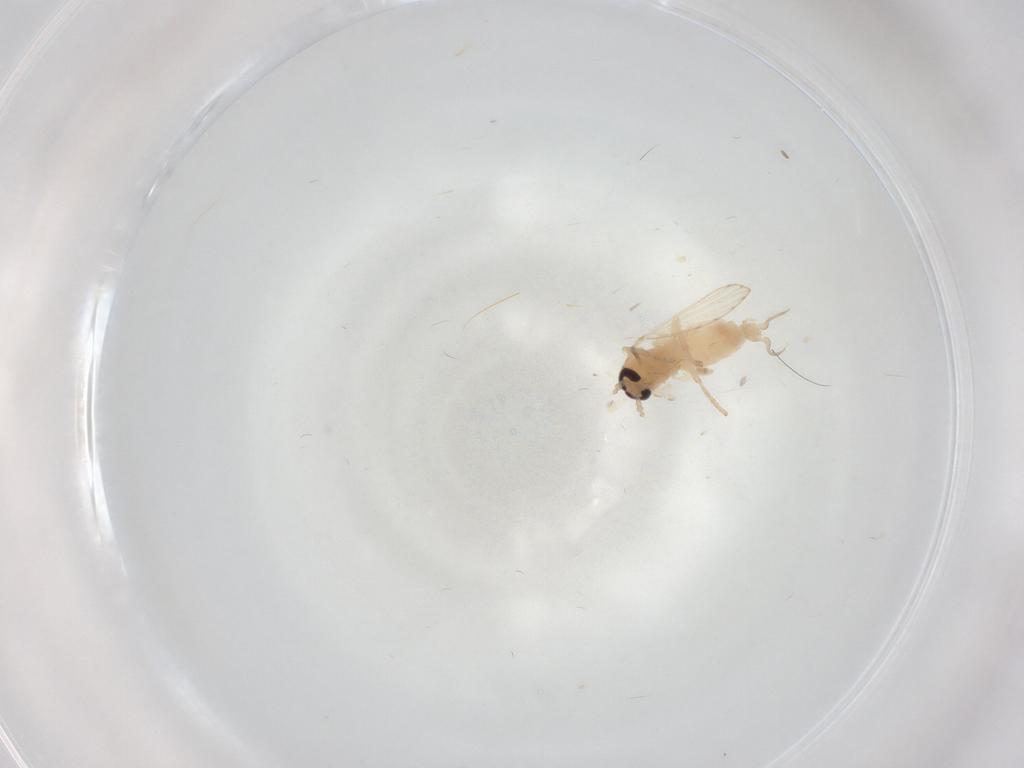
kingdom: Animalia
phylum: Arthropoda
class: Insecta
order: Diptera
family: Psychodidae
